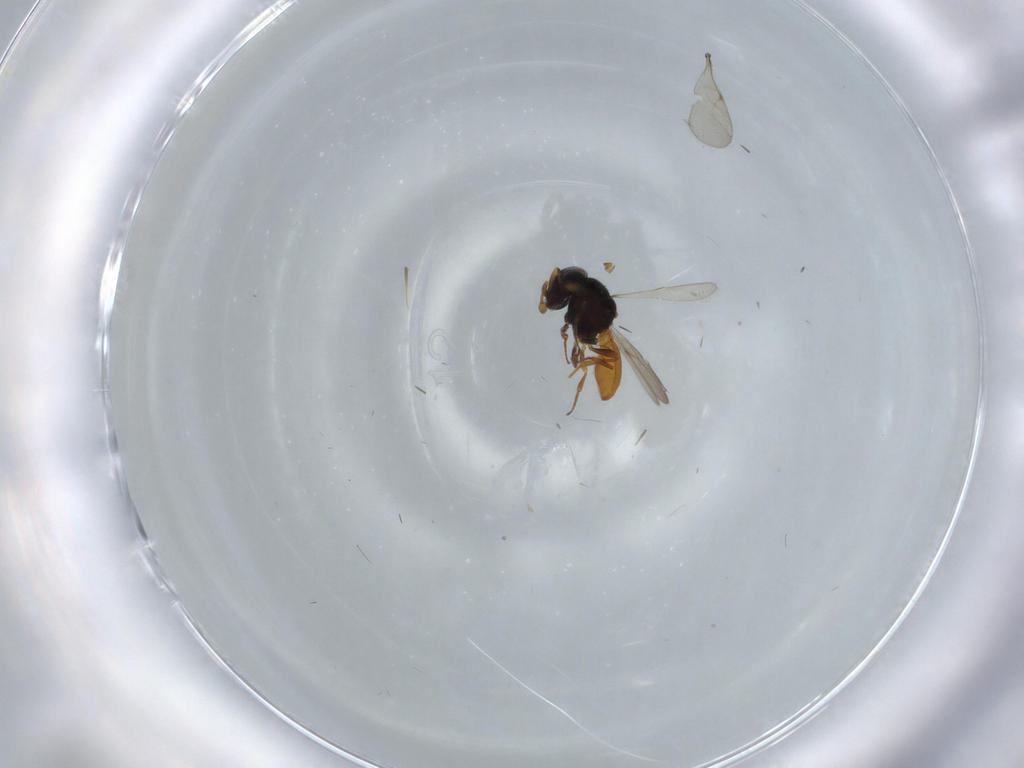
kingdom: Animalia
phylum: Arthropoda
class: Insecta
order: Hymenoptera
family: Scelionidae
